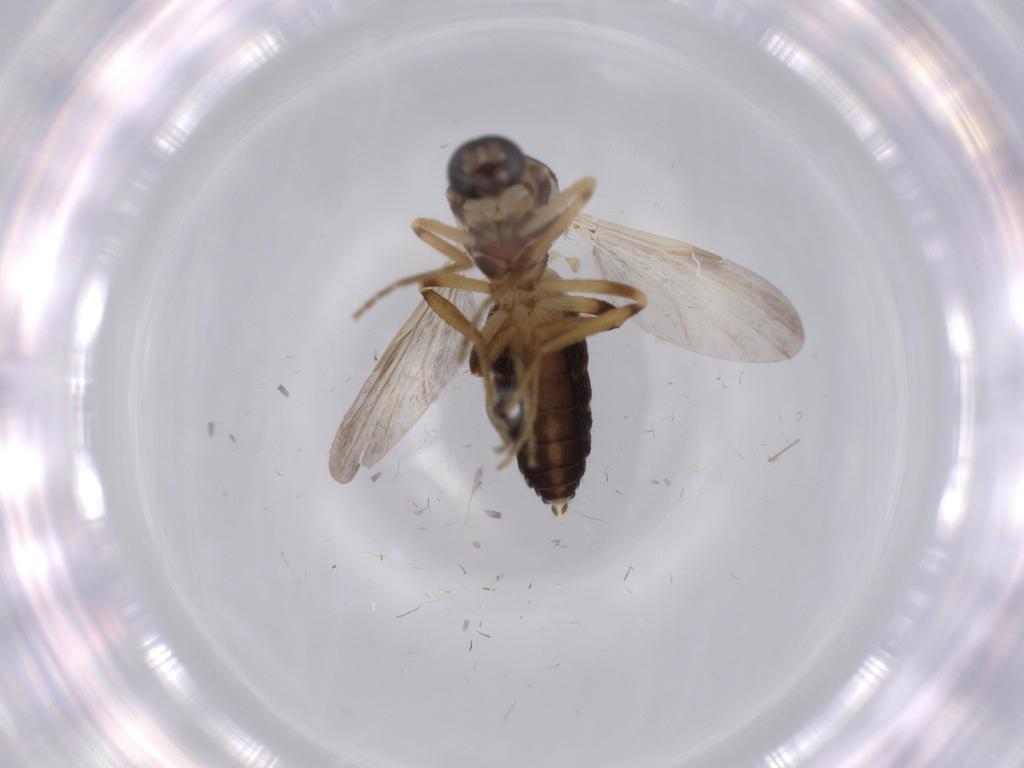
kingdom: Animalia
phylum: Arthropoda
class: Insecta
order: Diptera
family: Ceratopogonidae
